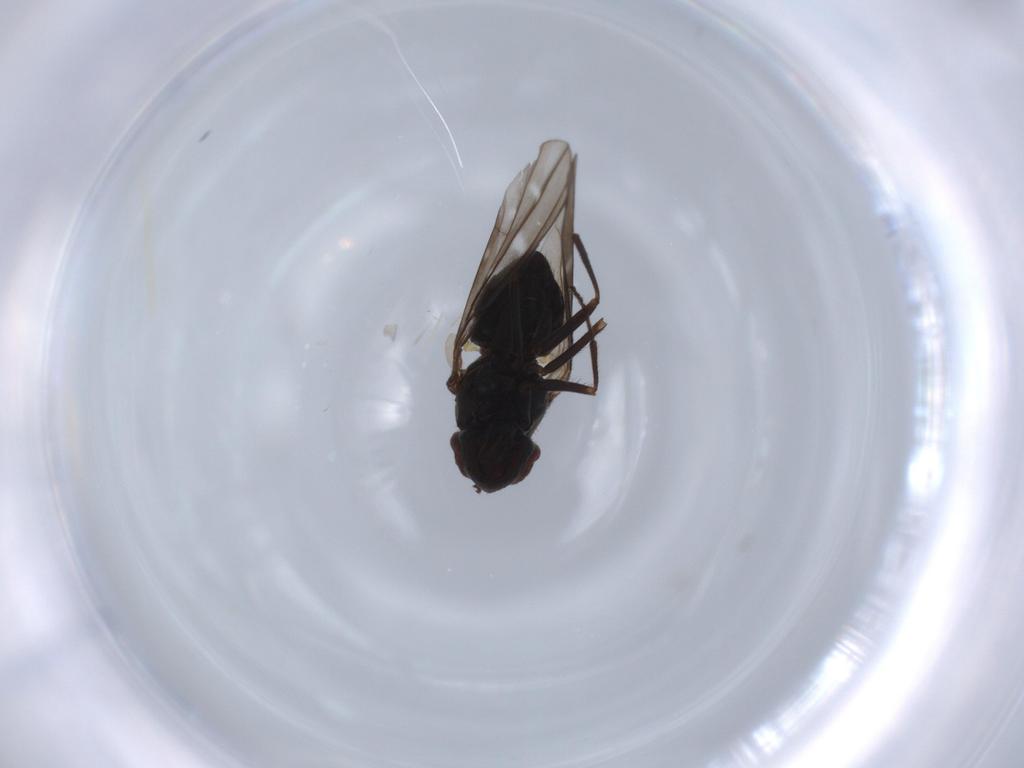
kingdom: Animalia
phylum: Arthropoda
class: Insecta
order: Diptera
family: Ephydridae
